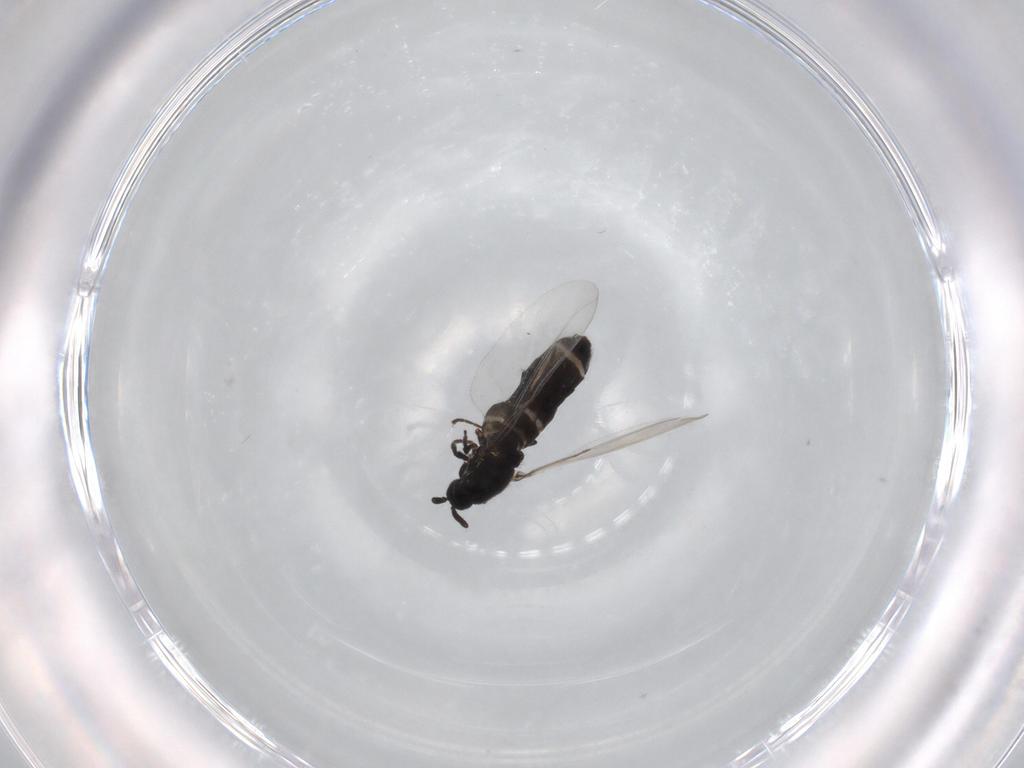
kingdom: Animalia
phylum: Arthropoda
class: Insecta
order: Diptera
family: Scatopsidae
